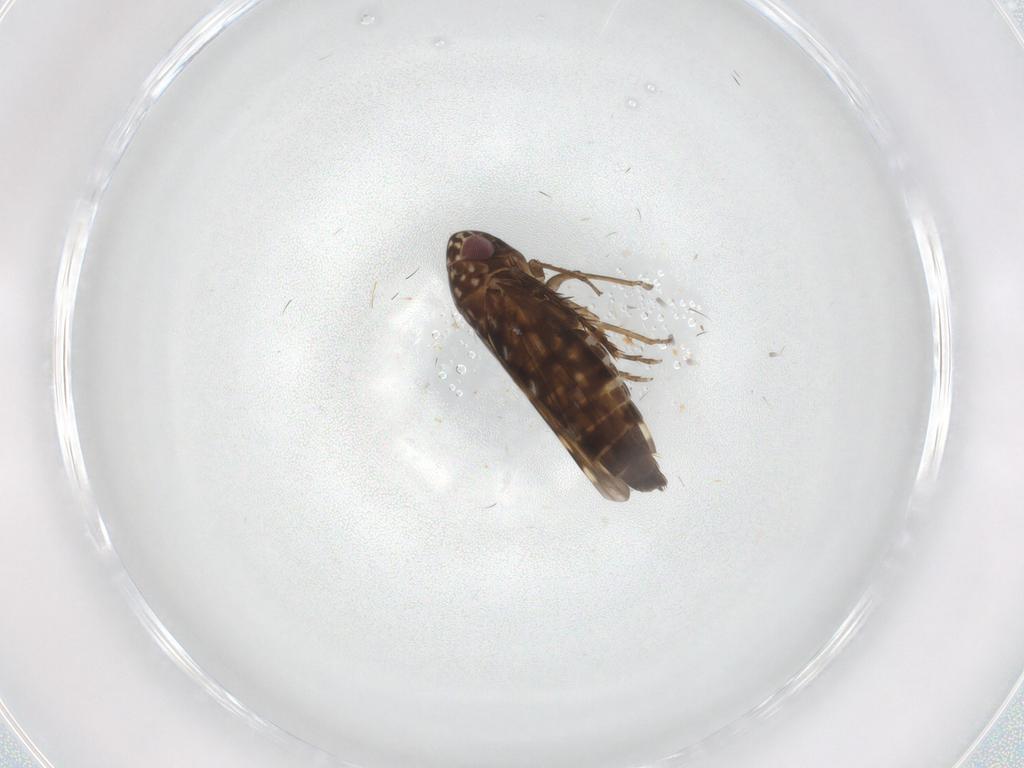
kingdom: Animalia
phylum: Arthropoda
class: Insecta
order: Hemiptera
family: Cicadellidae
